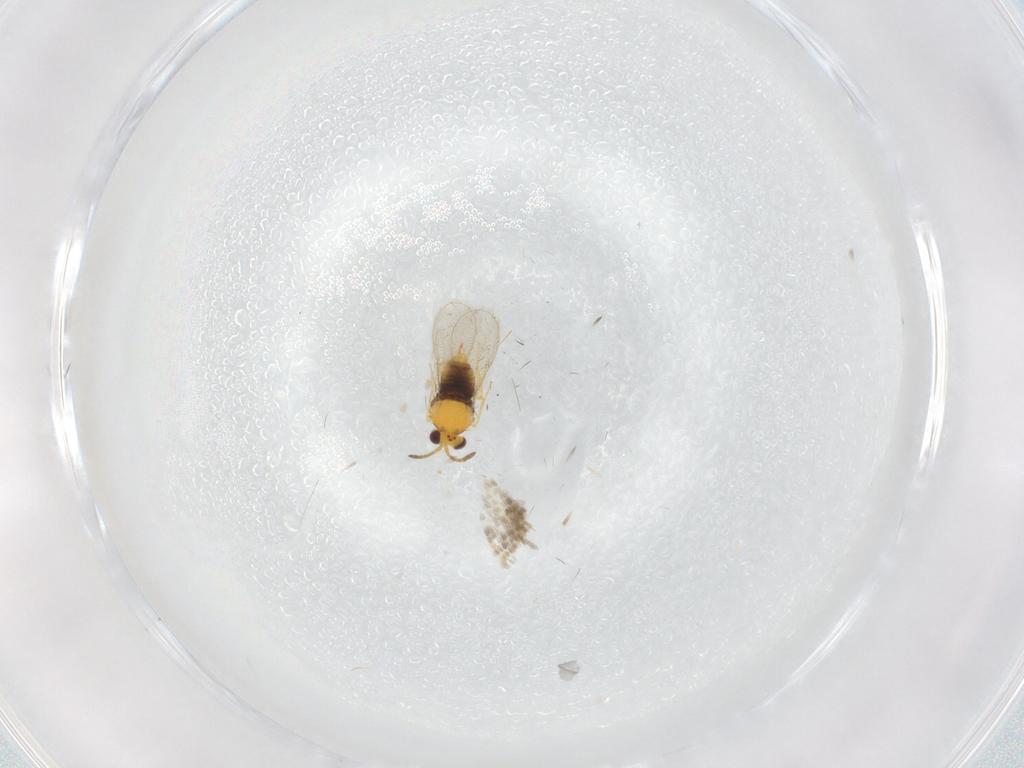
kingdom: Animalia
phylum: Arthropoda
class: Insecta
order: Hymenoptera
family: Aphelinidae
